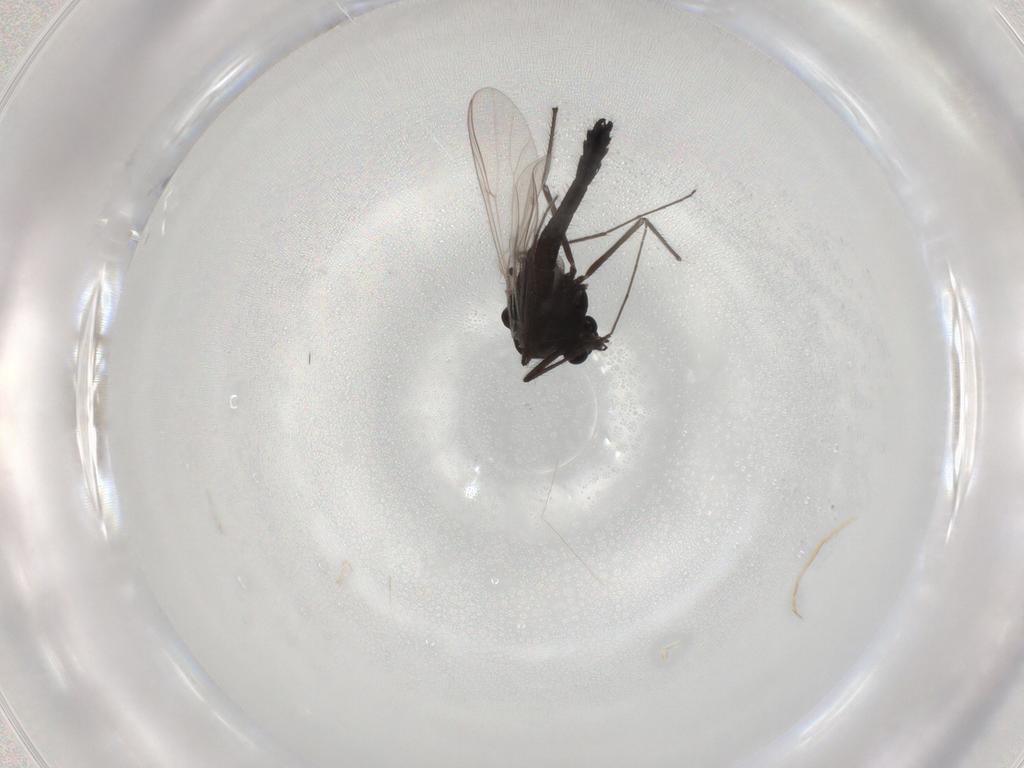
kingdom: Animalia
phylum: Arthropoda
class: Insecta
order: Diptera
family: Chironomidae
